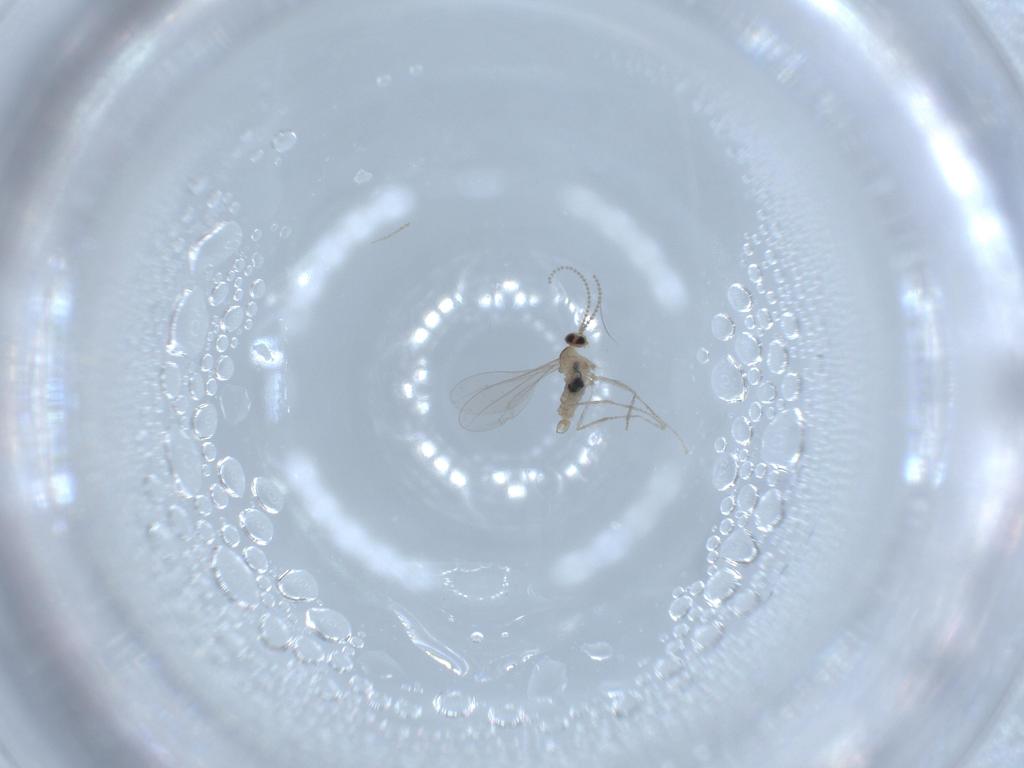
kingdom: Animalia
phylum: Arthropoda
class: Insecta
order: Diptera
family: Cecidomyiidae
